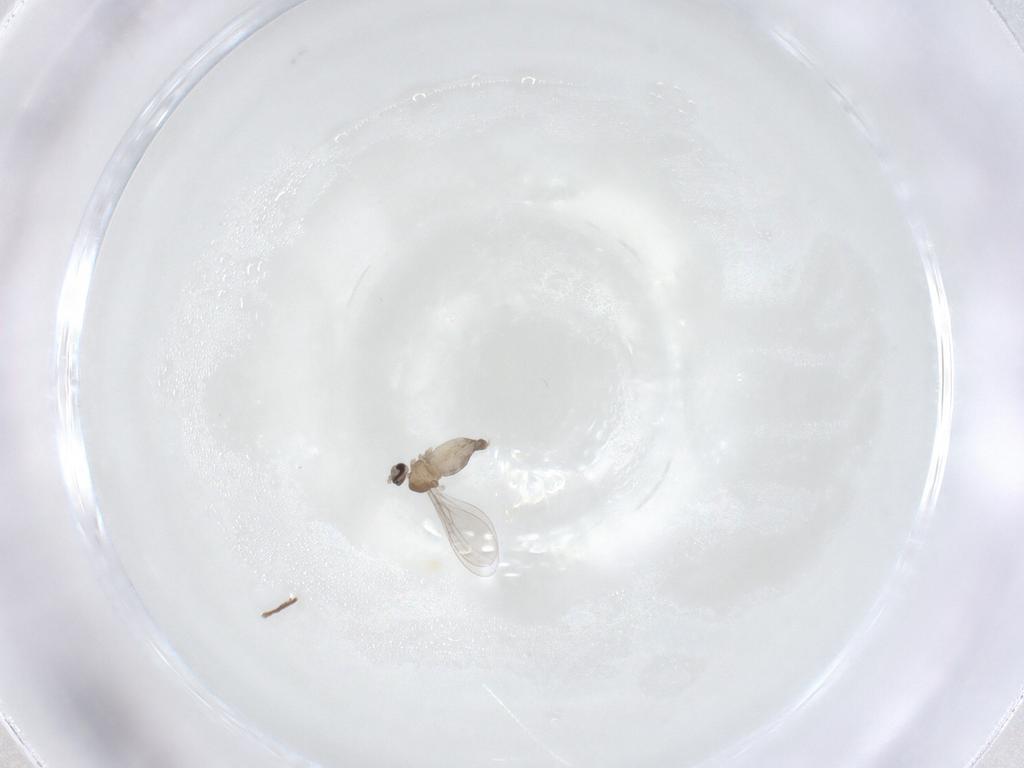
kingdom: Animalia
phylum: Arthropoda
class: Insecta
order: Diptera
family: Cecidomyiidae
